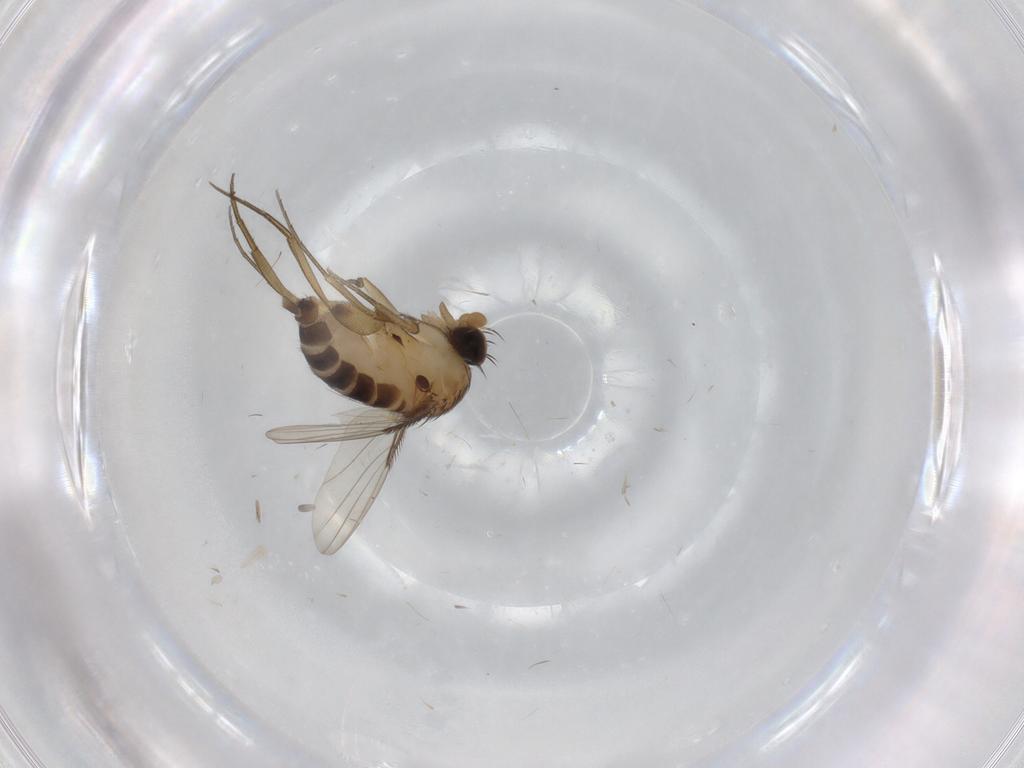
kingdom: Animalia
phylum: Arthropoda
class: Insecta
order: Diptera
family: Phoridae
